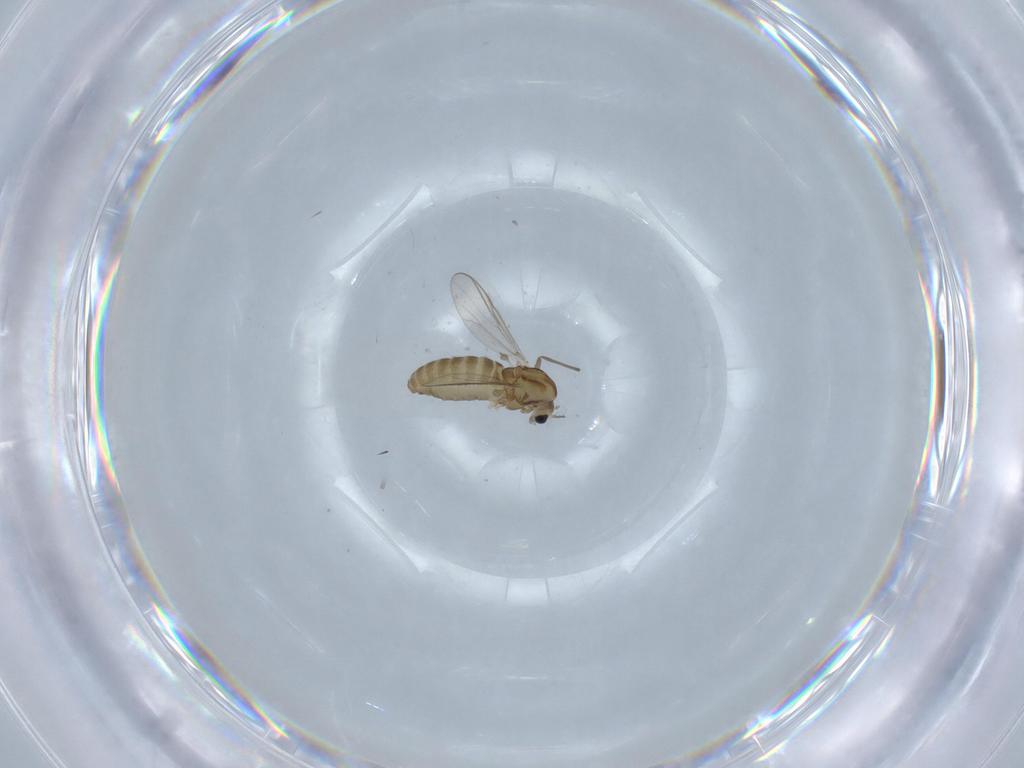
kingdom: Animalia
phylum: Arthropoda
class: Insecta
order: Diptera
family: Chironomidae
